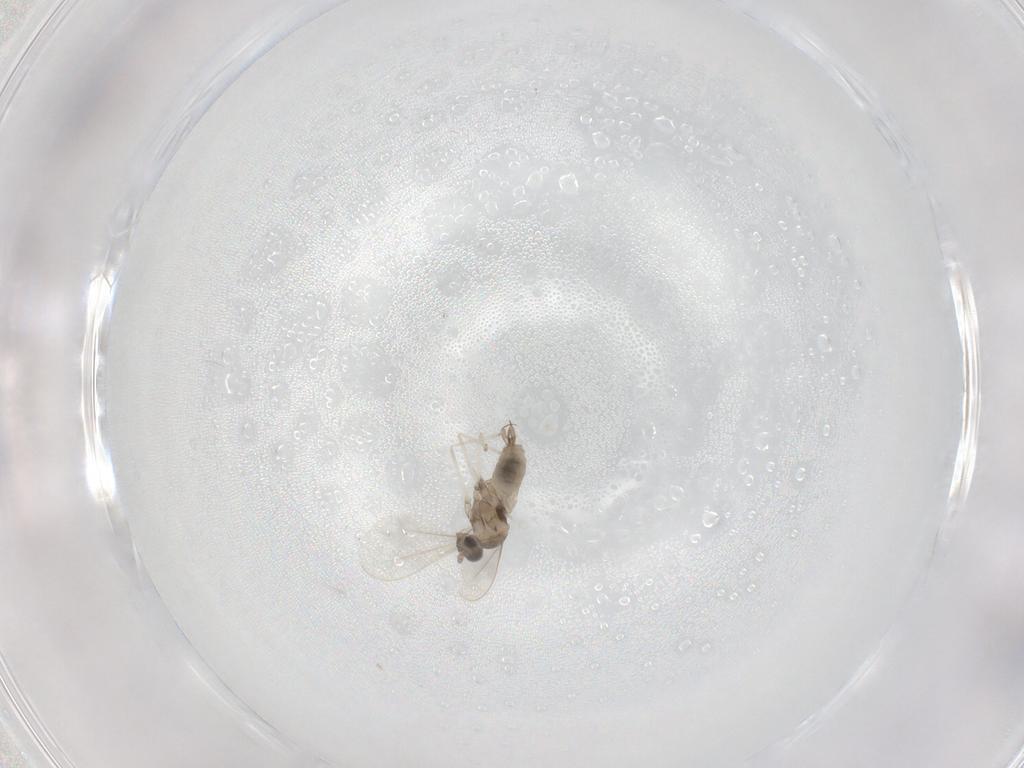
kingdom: Animalia
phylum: Arthropoda
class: Insecta
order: Diptera
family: Cecidomyiidae
